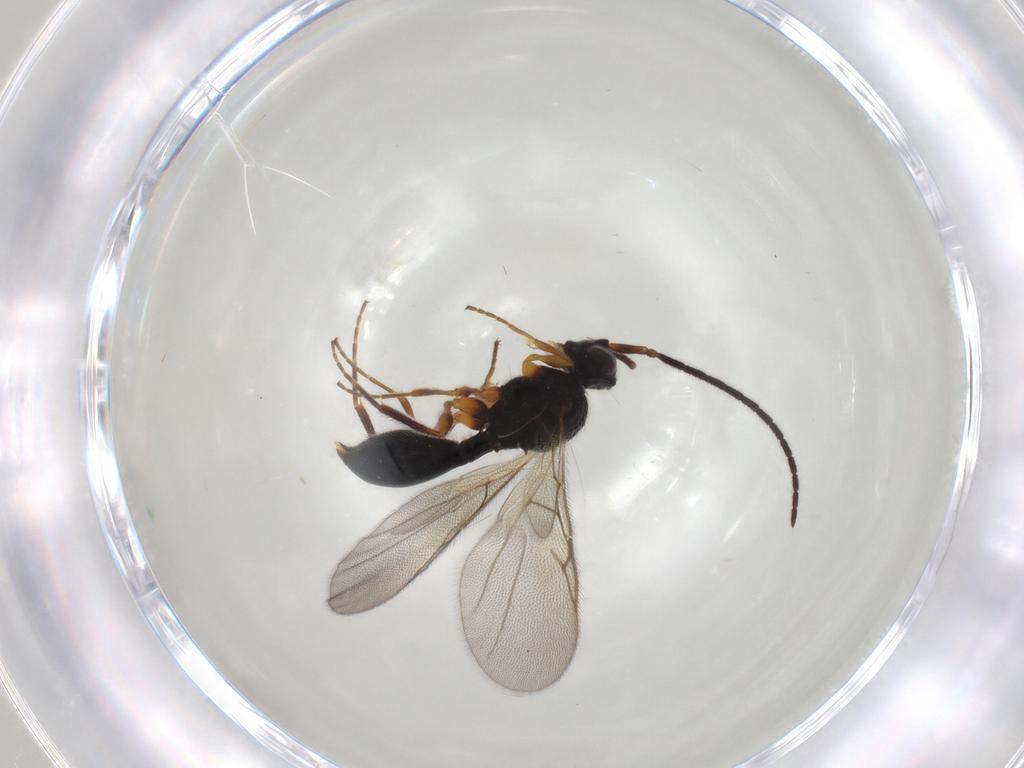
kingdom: Animalia
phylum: Arthropoda
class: Insecta
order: Hymenoptera
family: Diapriidae
